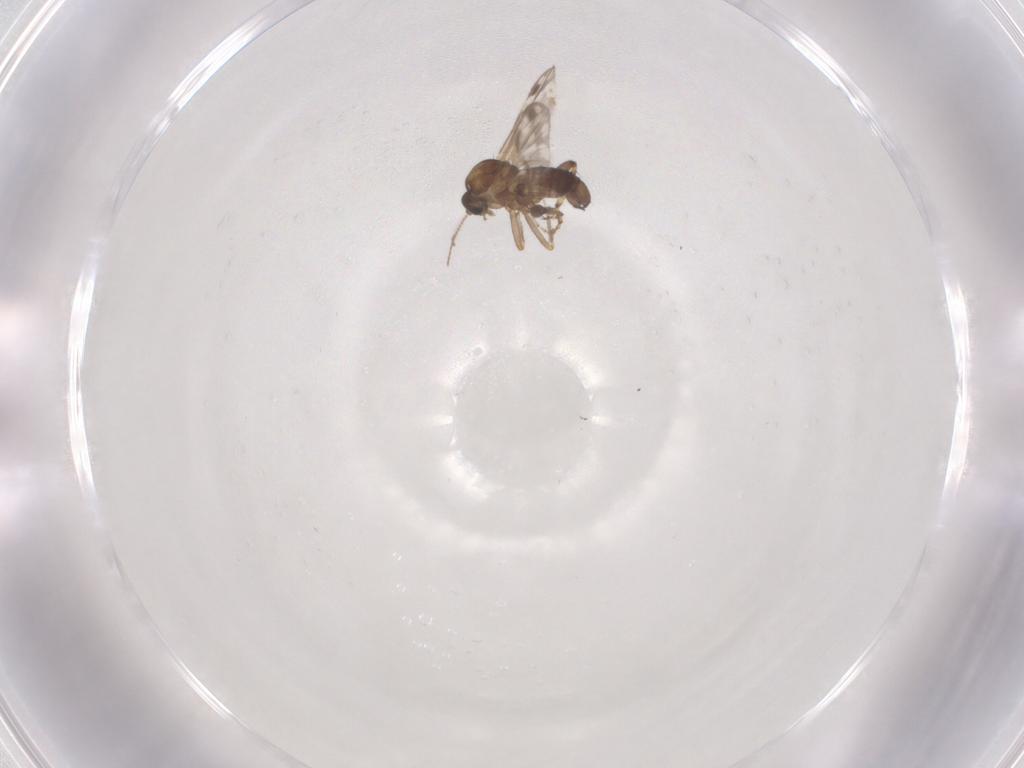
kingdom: Animalia
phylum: Arthropoda
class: Insecta
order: Diptera
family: Ceratopogonidae
